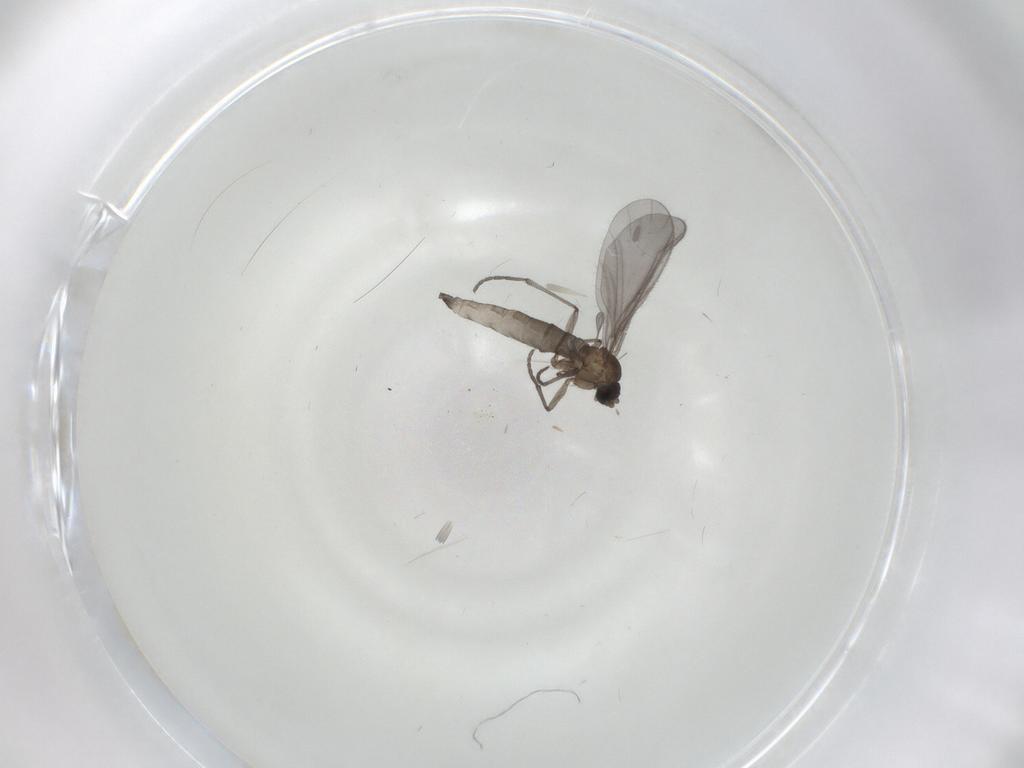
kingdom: Animalia
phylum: Arthropoda
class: Insecta
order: Diptera
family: Sciaridae
